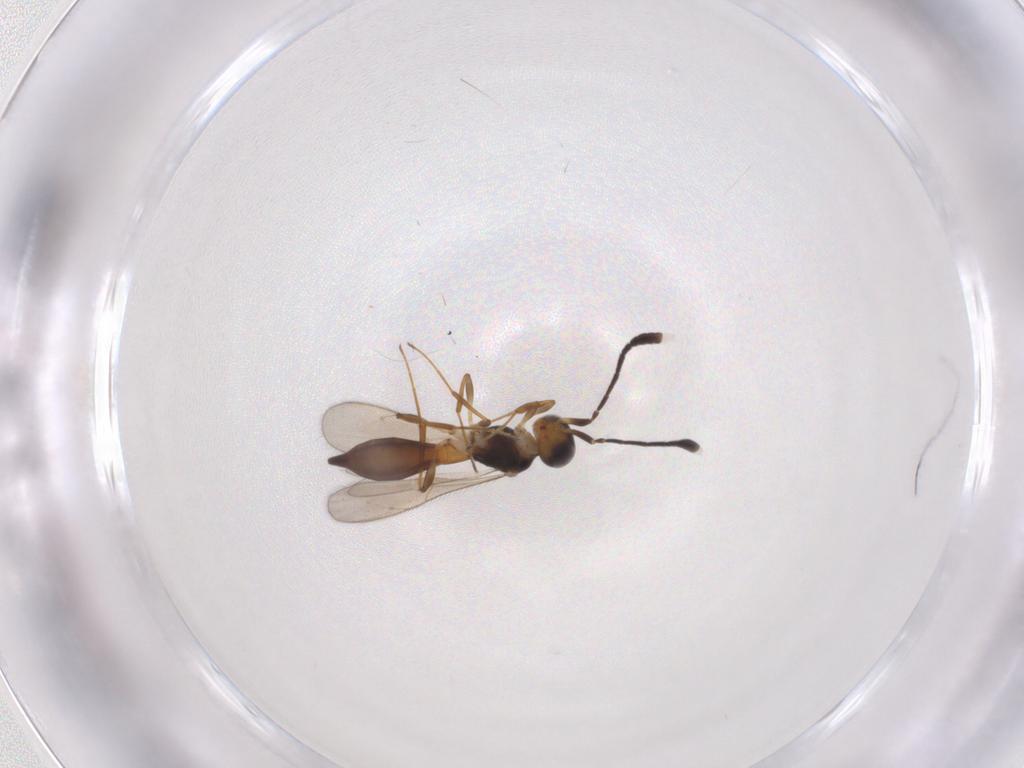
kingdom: Animalia
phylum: Arthropoda
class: Insecta
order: Hymenoptera
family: Scelionidae
